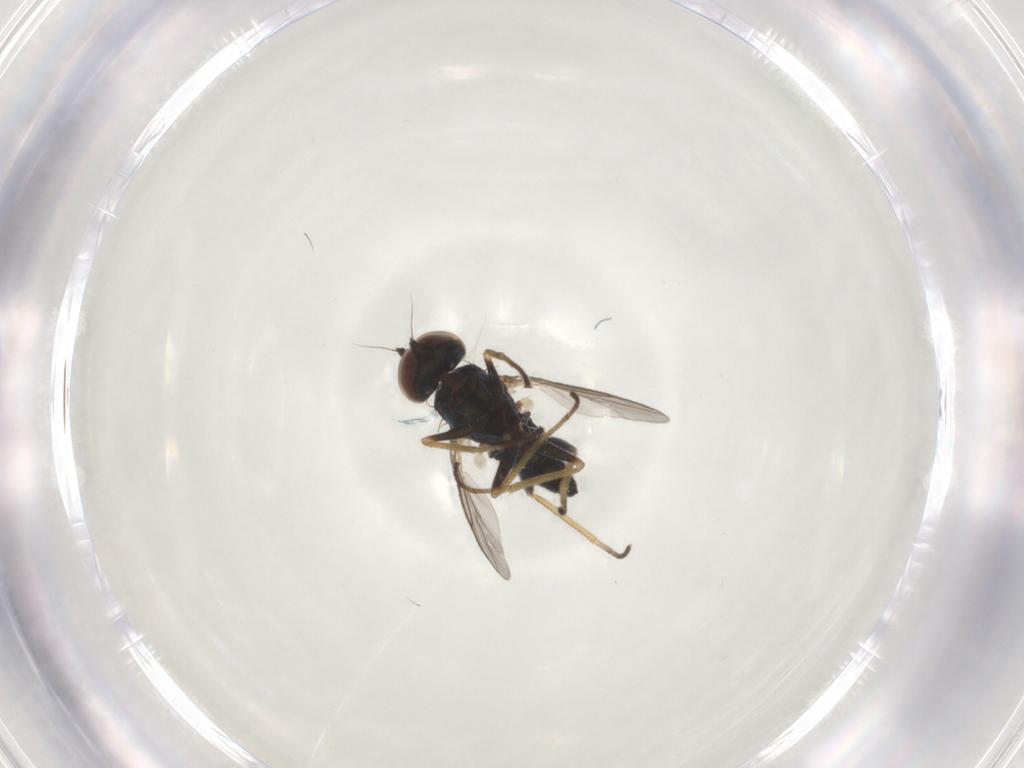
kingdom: Animalia
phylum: Arthropoda
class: Insecta
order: Diptera
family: Dolichopodidae
